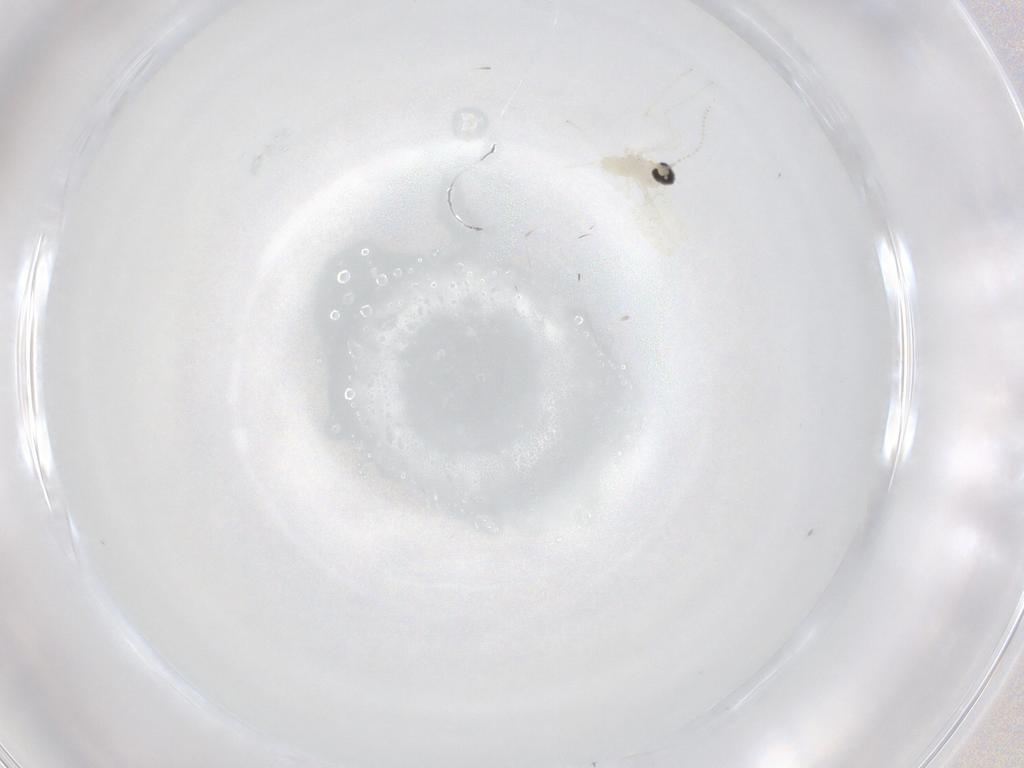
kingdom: Animalia
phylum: Arthropoda
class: Insecta
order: Diptera
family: Cecidomyiidae
